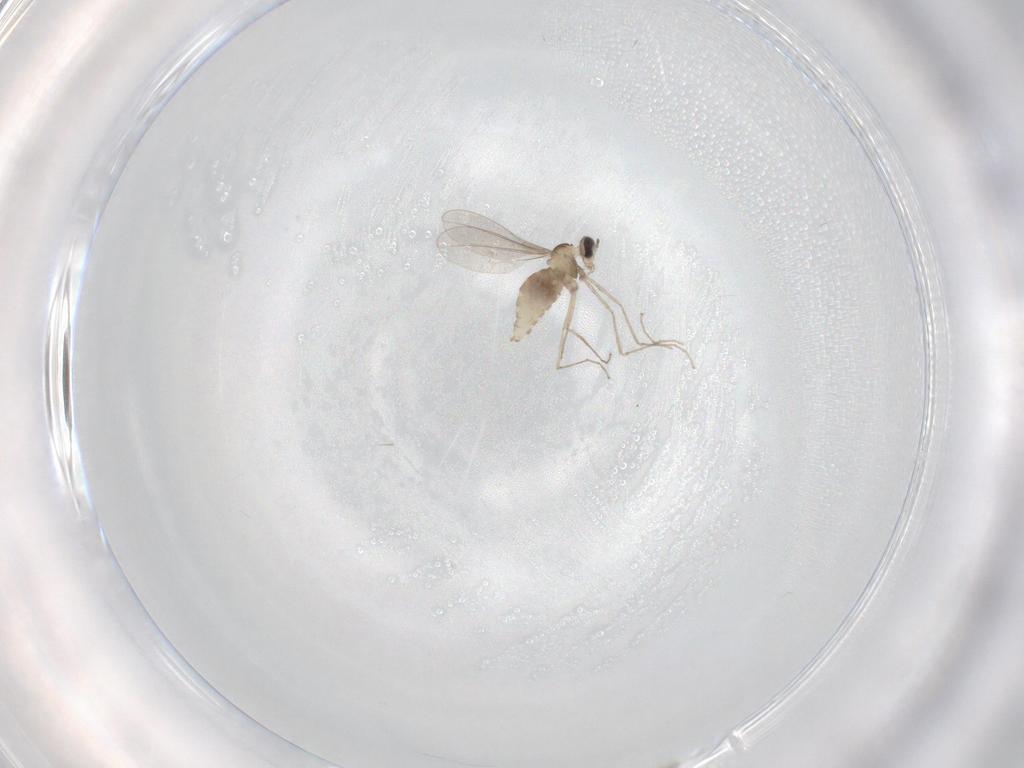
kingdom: Animalia
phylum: Arthropoda
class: Insecta
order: Diptera
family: Cecidomyiidae
